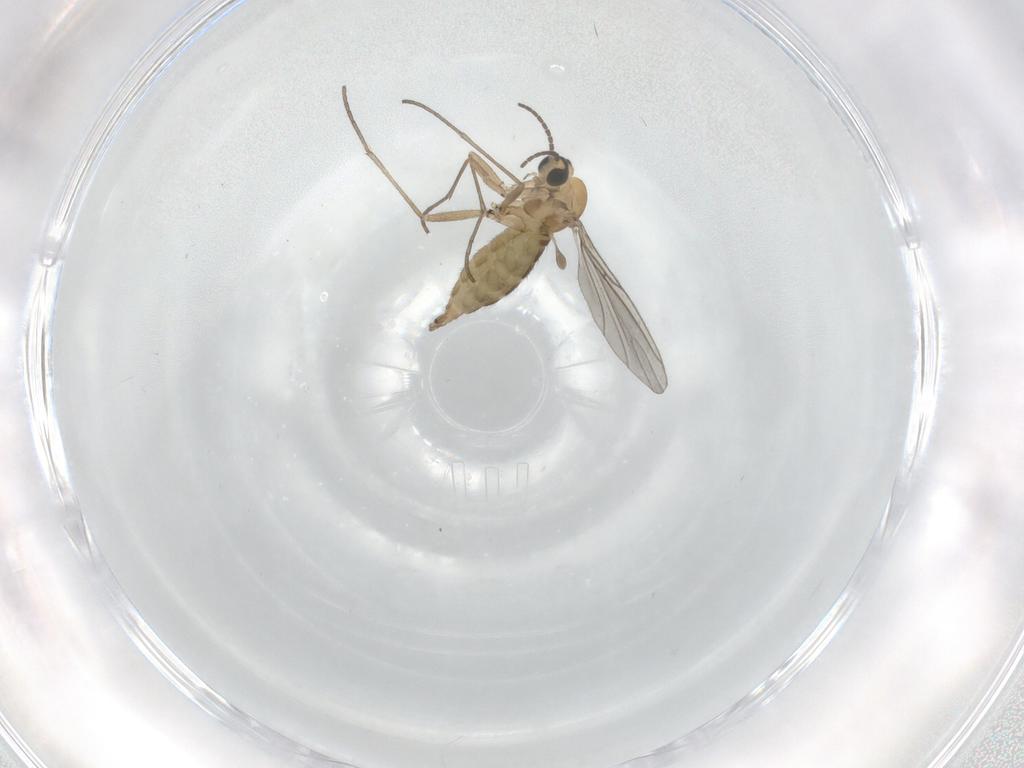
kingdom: Animalia
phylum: Arthropoda
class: Insecta
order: Diptera
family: Sciaridae
